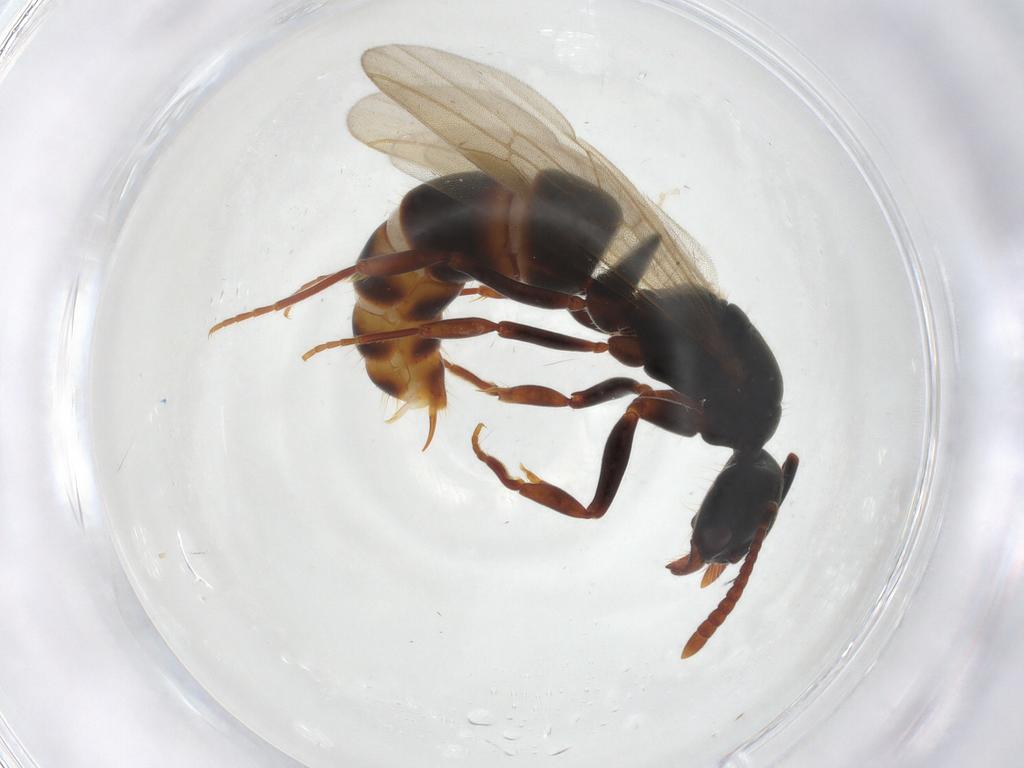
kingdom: Animalia
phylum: Arthropoda
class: Insecta
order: Hymenoptera
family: Formicidae
